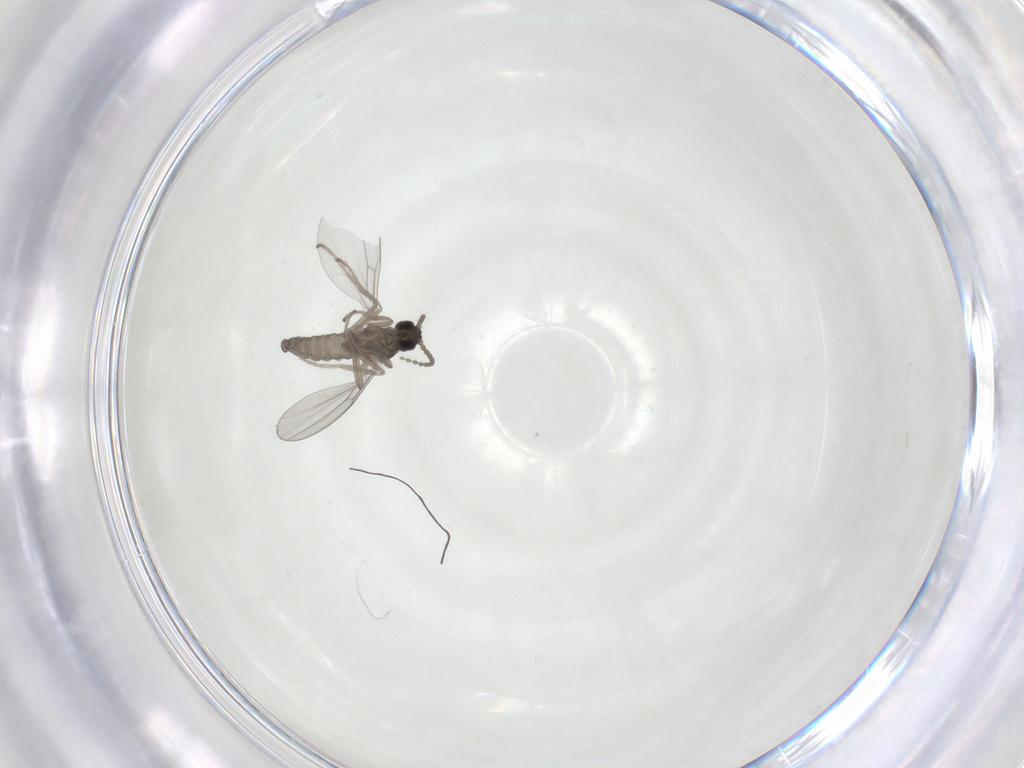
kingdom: Animalia
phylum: Arthropoda
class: Insecta
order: Diptera
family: Cecidomyiidae
